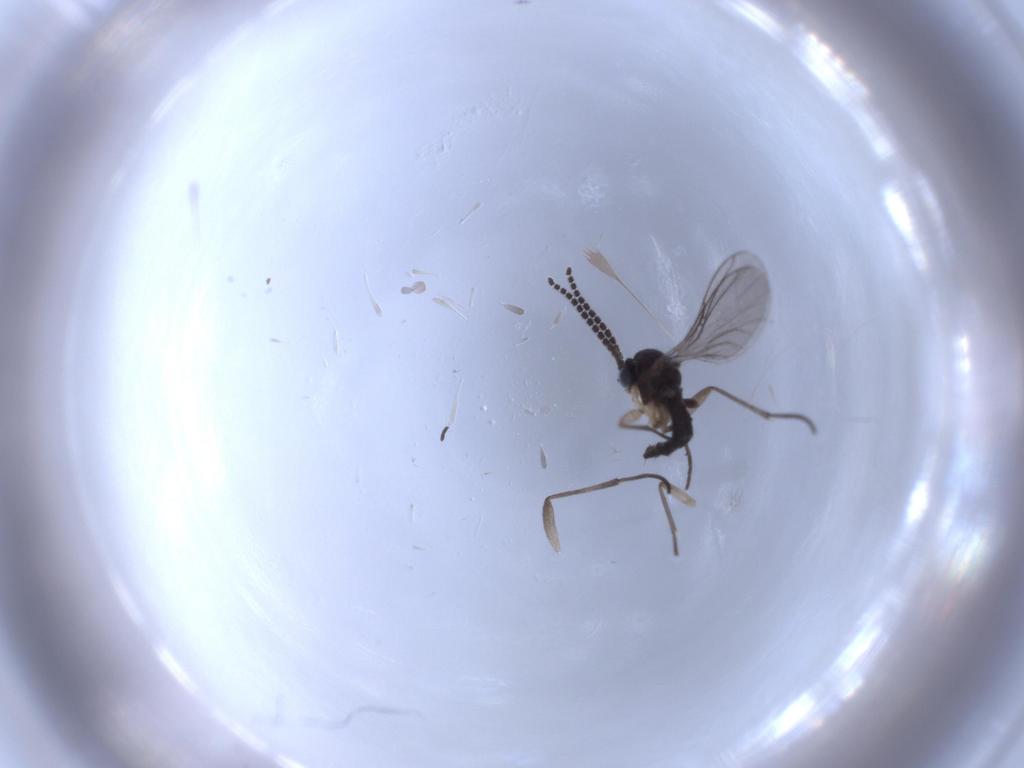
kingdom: Animalia
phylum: Arthropoda
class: Insecta
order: Diptera
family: Sciaridae
